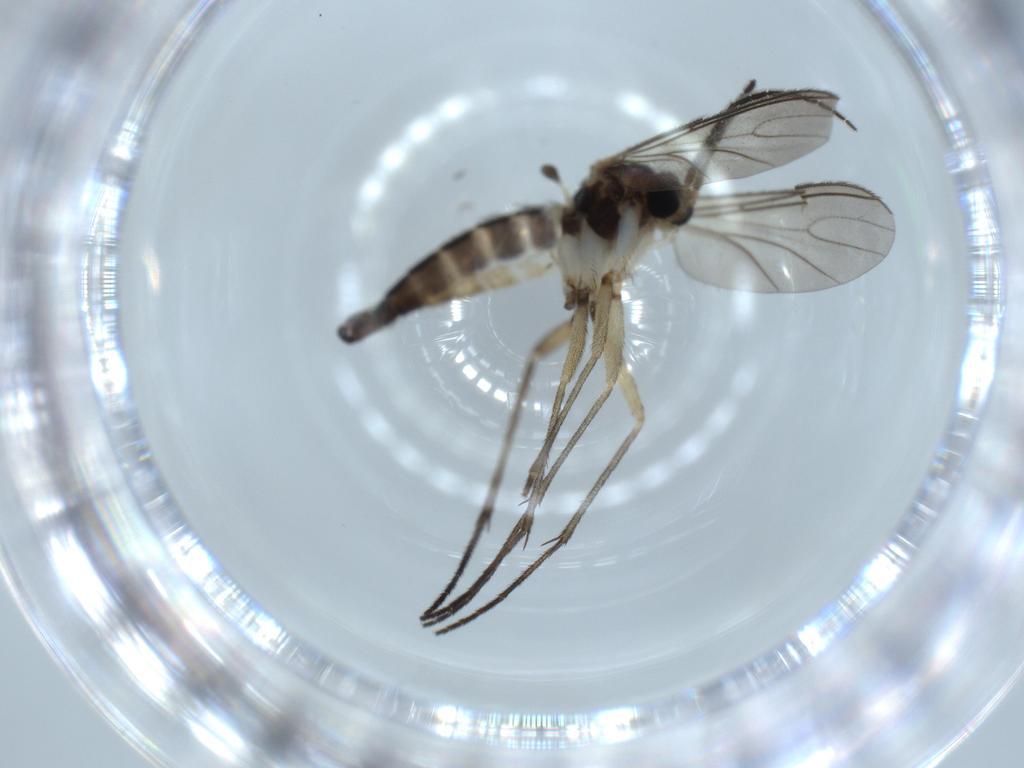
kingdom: Animalia
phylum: Arthropoda
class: Insecta
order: Diptera
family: Sciaridae
